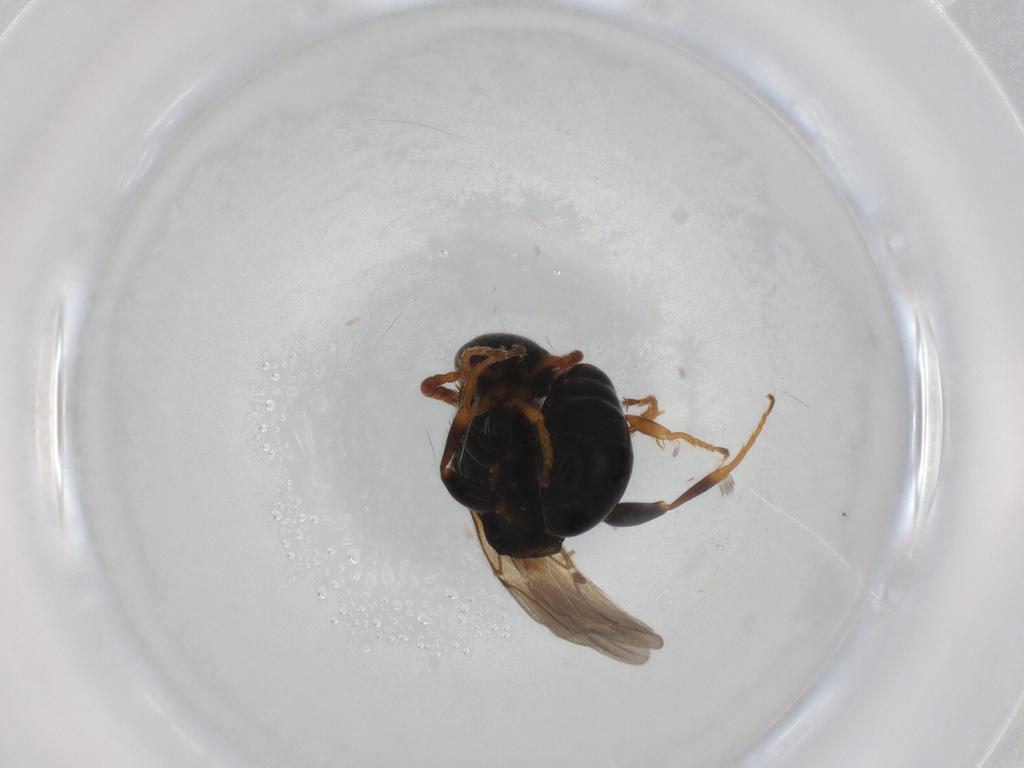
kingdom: Animalia
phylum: Arthropoda
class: Insecta
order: Hymenoptera
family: Bethylidae
